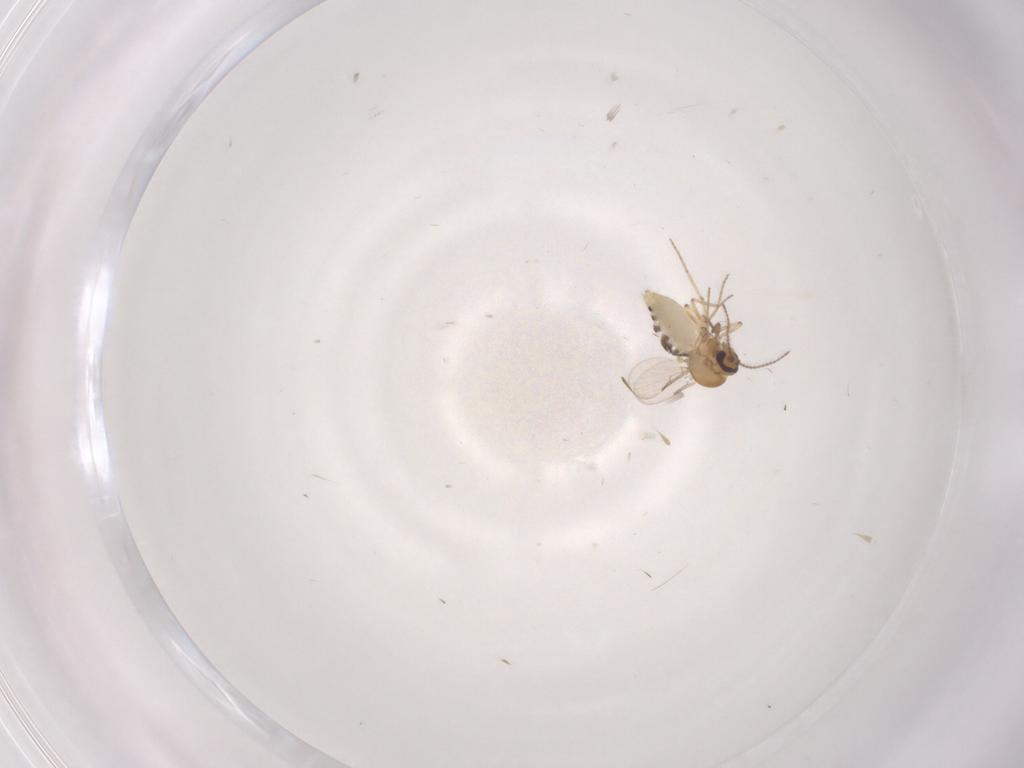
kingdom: Animalia
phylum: Arthropoda
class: Insecta
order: Diptera
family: Ceratopogonidae
